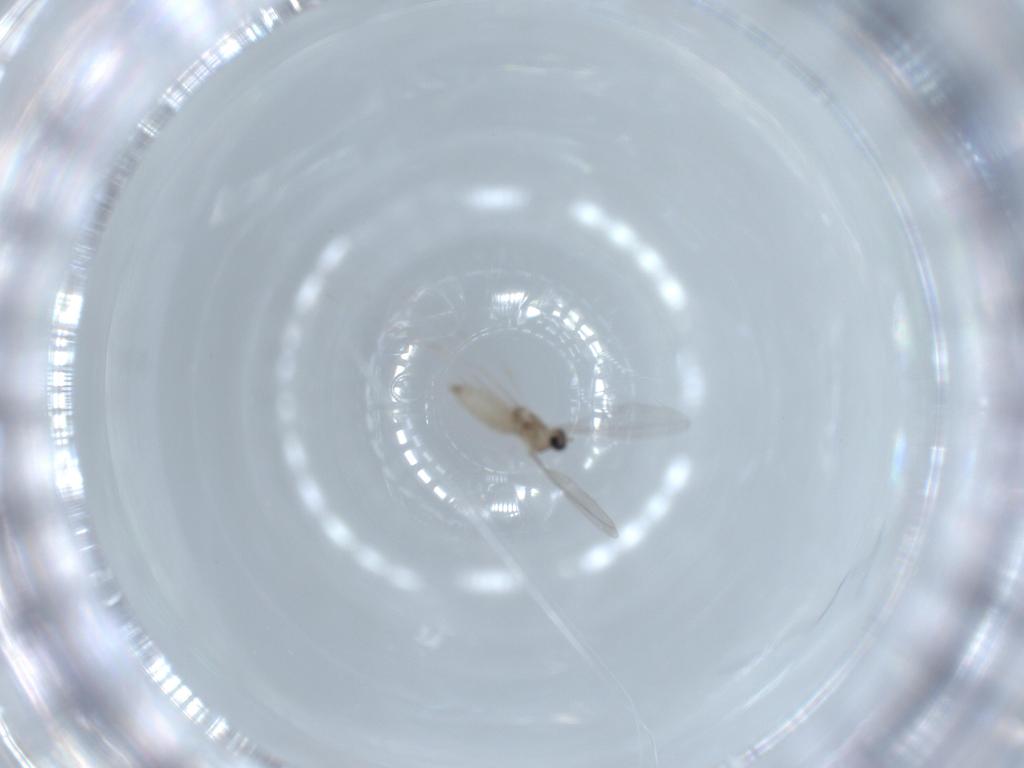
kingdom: Animalia
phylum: Arthropoda
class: Insecta
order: Diptera
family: Cecidomyiidae
